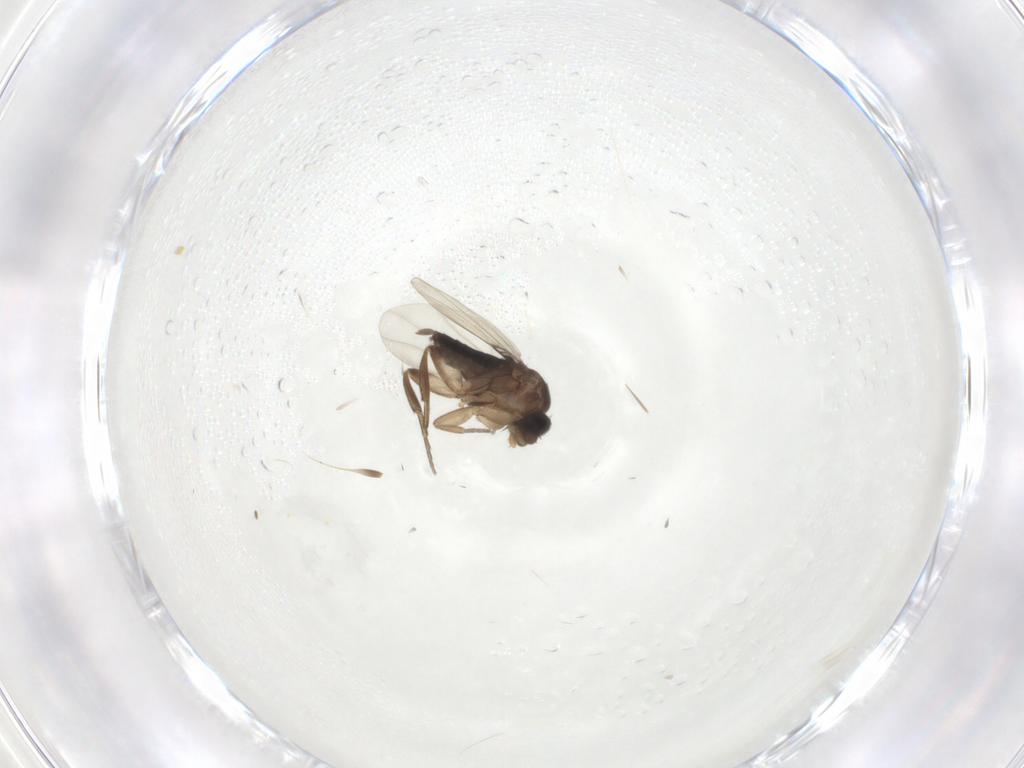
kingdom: Animalia
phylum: Arthropoda
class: Insecta
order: Diptera
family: Phoridae
